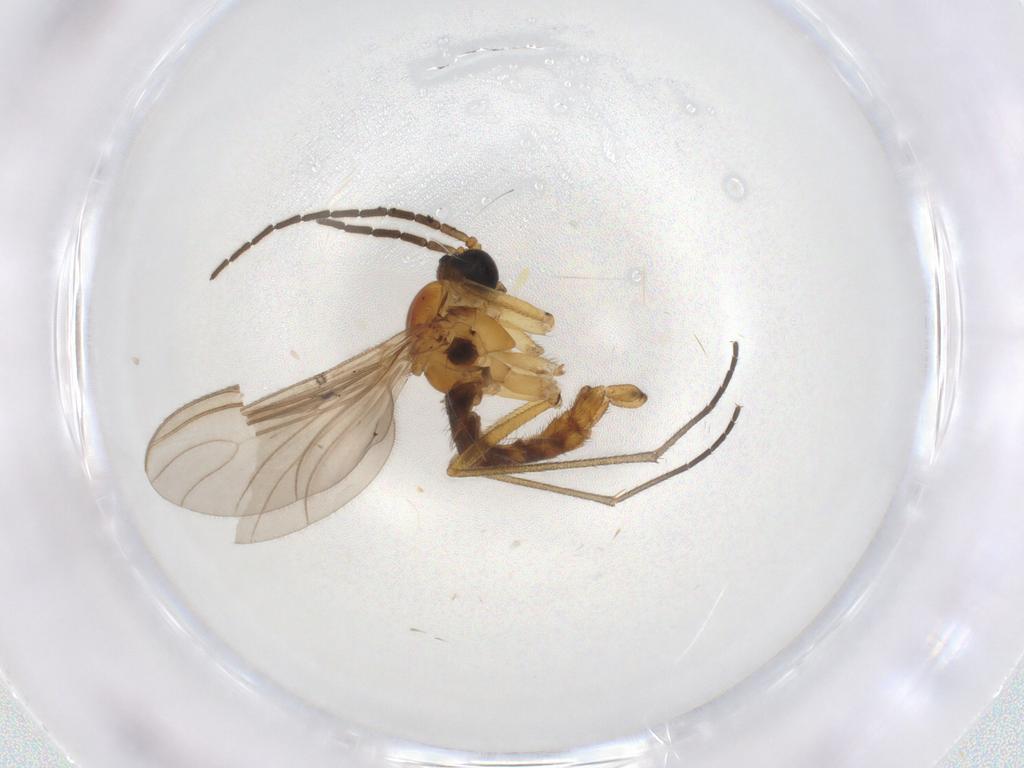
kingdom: Animalia
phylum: Arthropoda
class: Insecta
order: Diptera
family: Sciaridae
